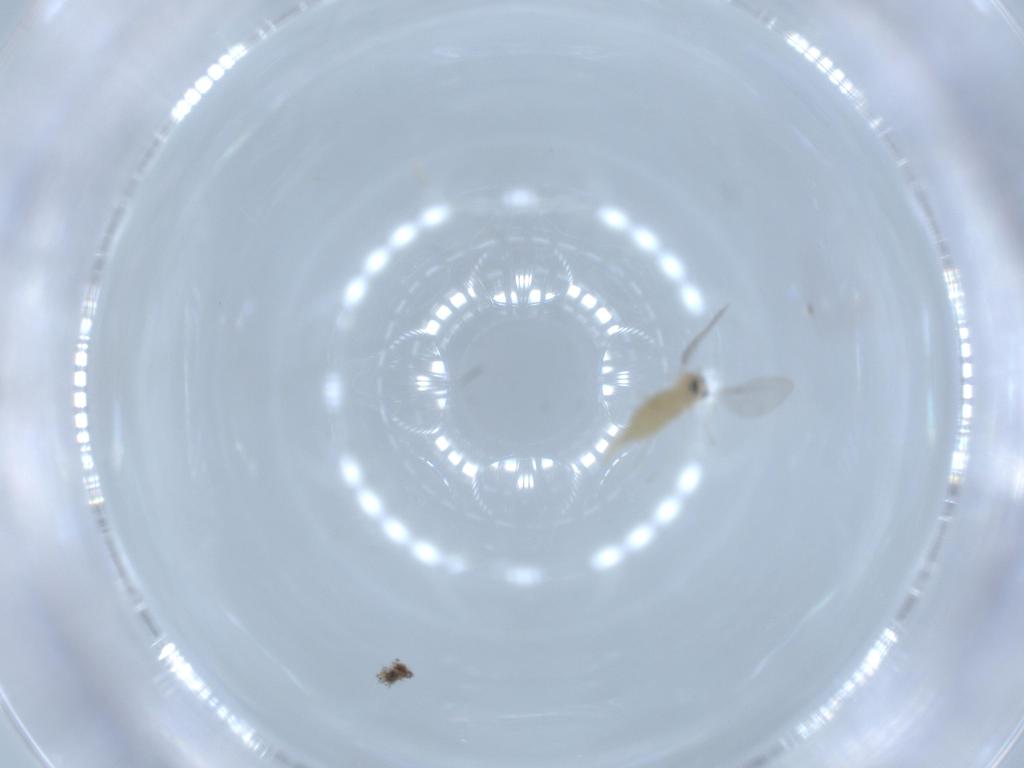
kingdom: Animalia
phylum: Arthropoda
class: Insecta
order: Diptera
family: Cecidomyiidae
